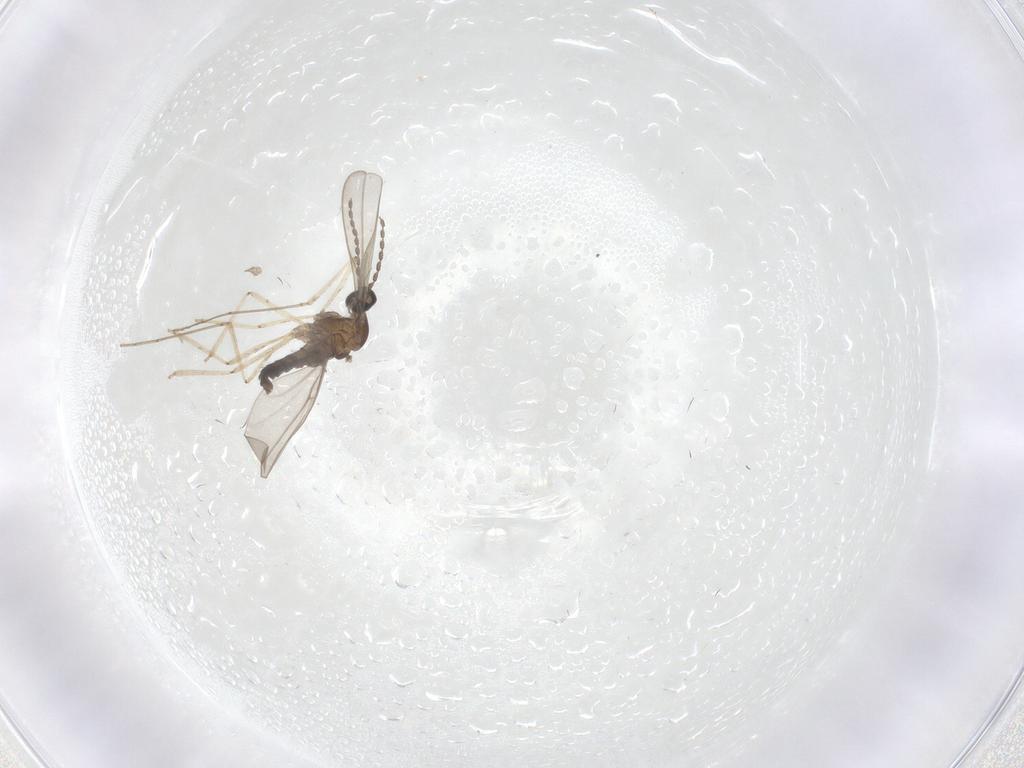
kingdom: Animalia
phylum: Arthropoda
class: Insecta
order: Diptera
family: Cecidomyiidae
